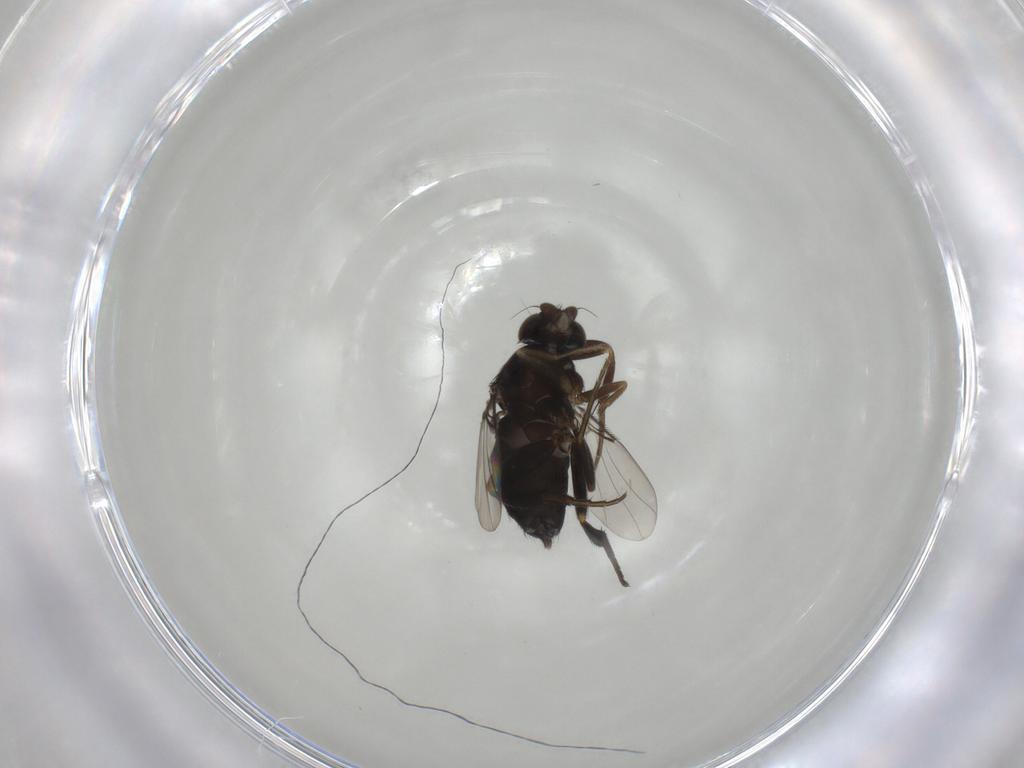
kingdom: Animalia
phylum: Arthropoda
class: Insecta
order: Diptera
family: Phoridae
